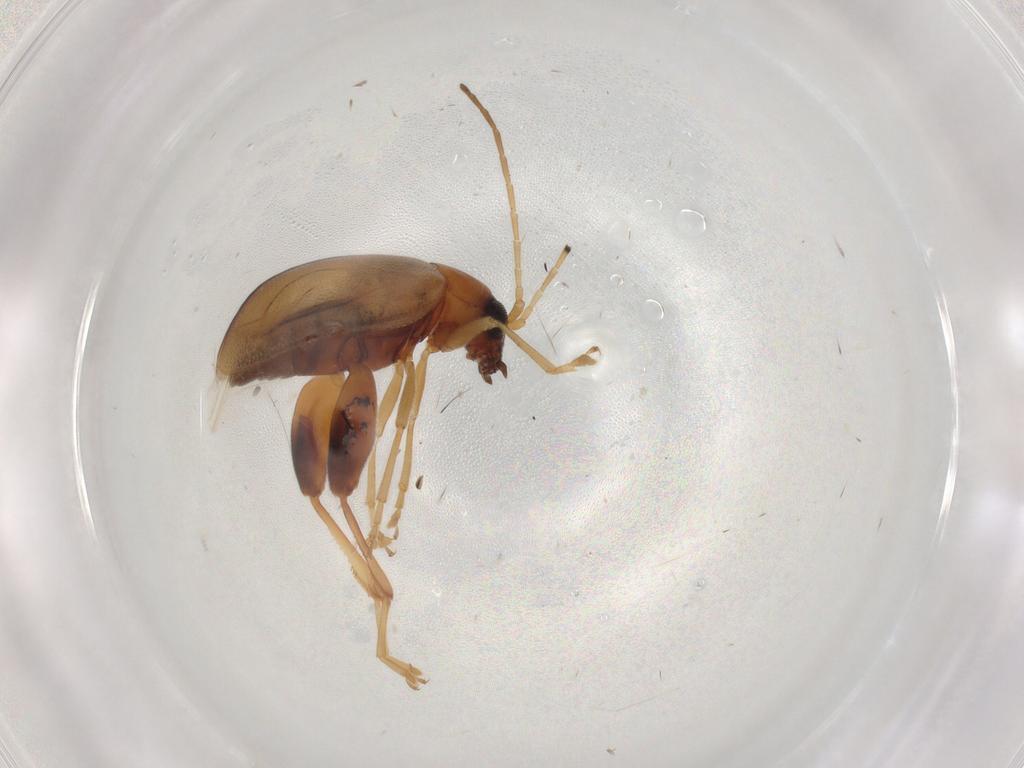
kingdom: Animalia
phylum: Arthropoda
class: Insecta
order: Coleoptera
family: Chrysomelidae
